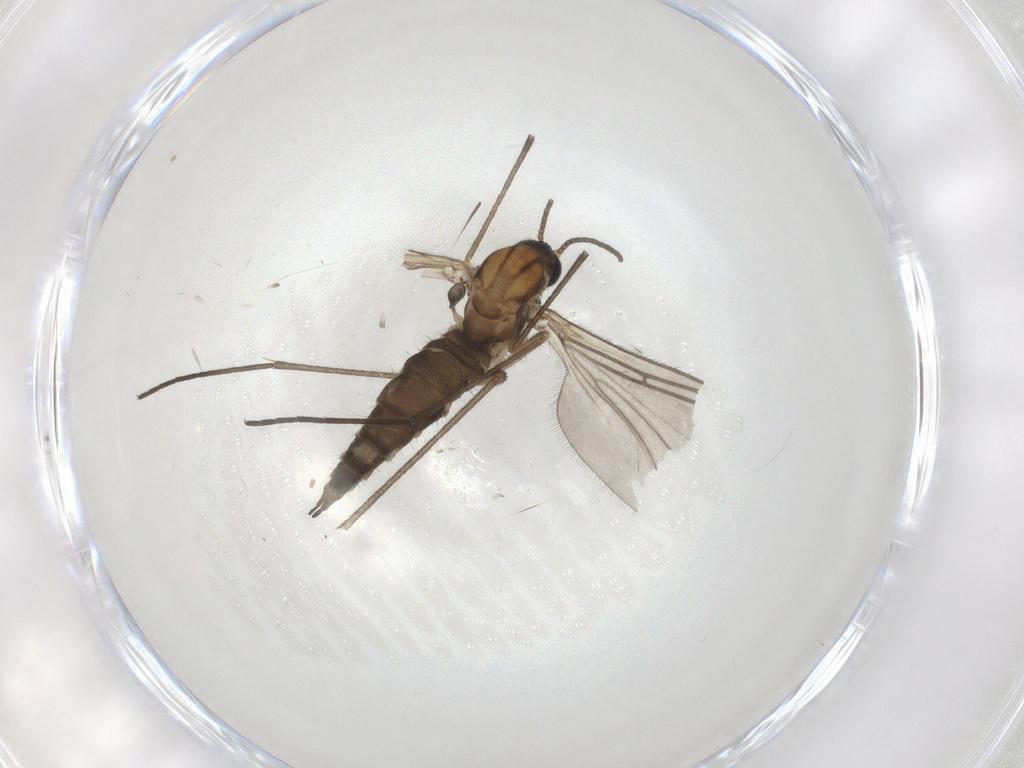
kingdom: Animalia
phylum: Arthropoda
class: Insecta
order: Diptera
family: Sciaridae
